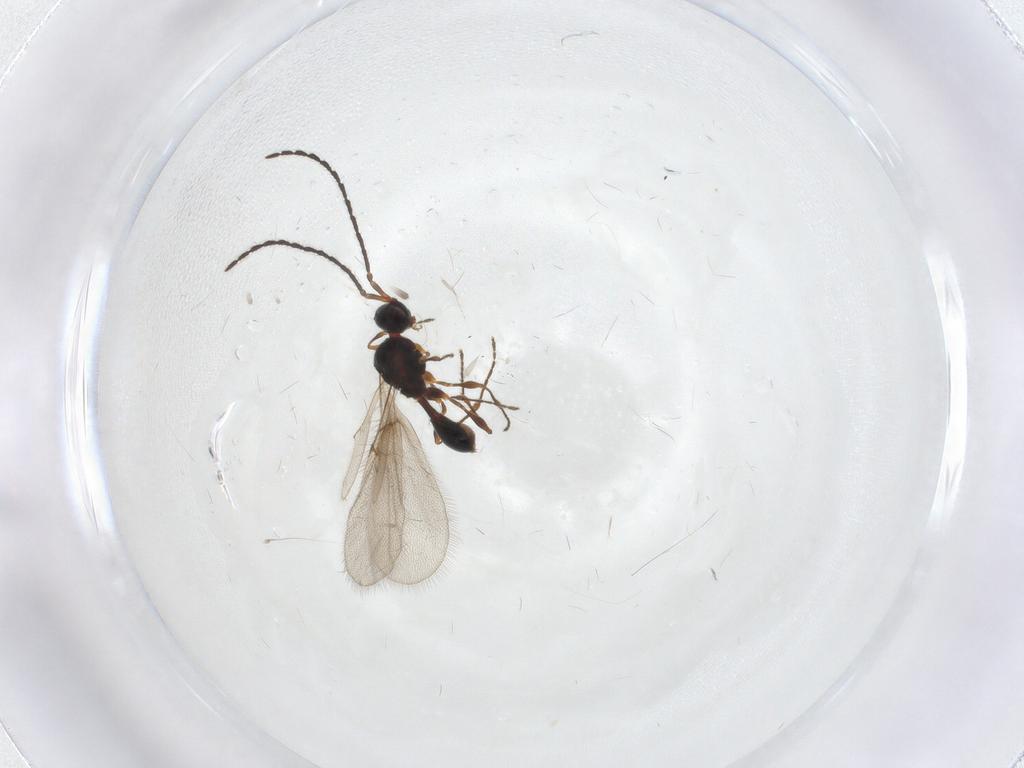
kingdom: Animalia
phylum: Arthropoda
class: Insecta
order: Hymenoptera
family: Diapriidae
